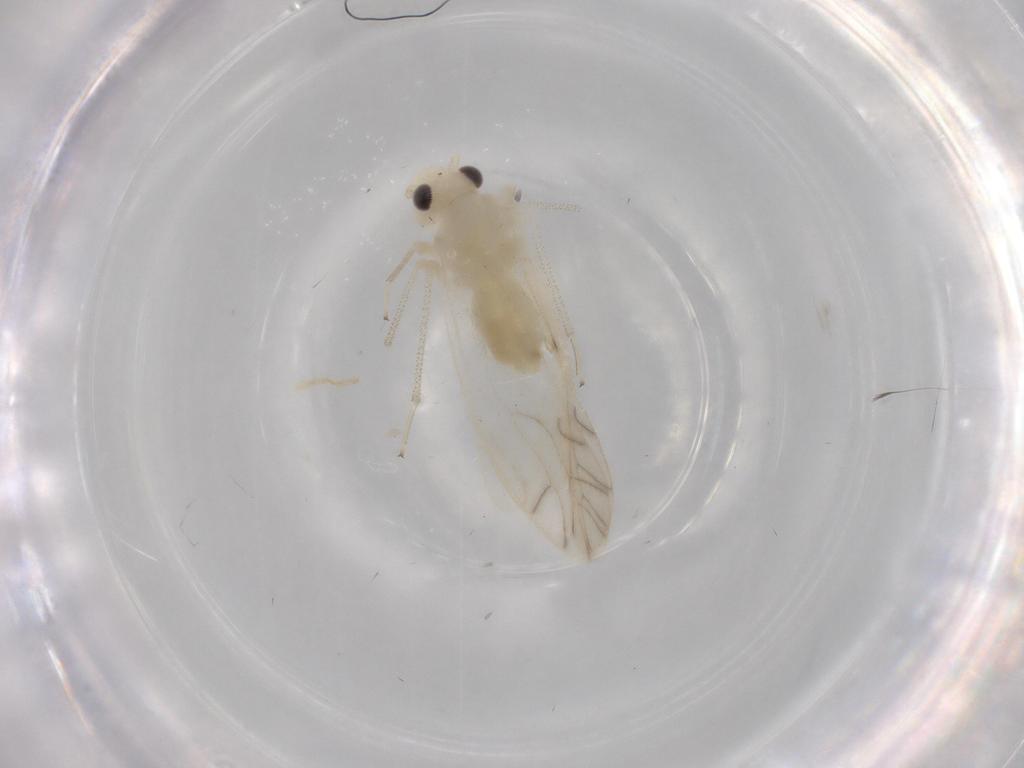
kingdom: Animalia
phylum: Arthropoda
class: Insecta
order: Psocodea
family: Caeciliusidae
